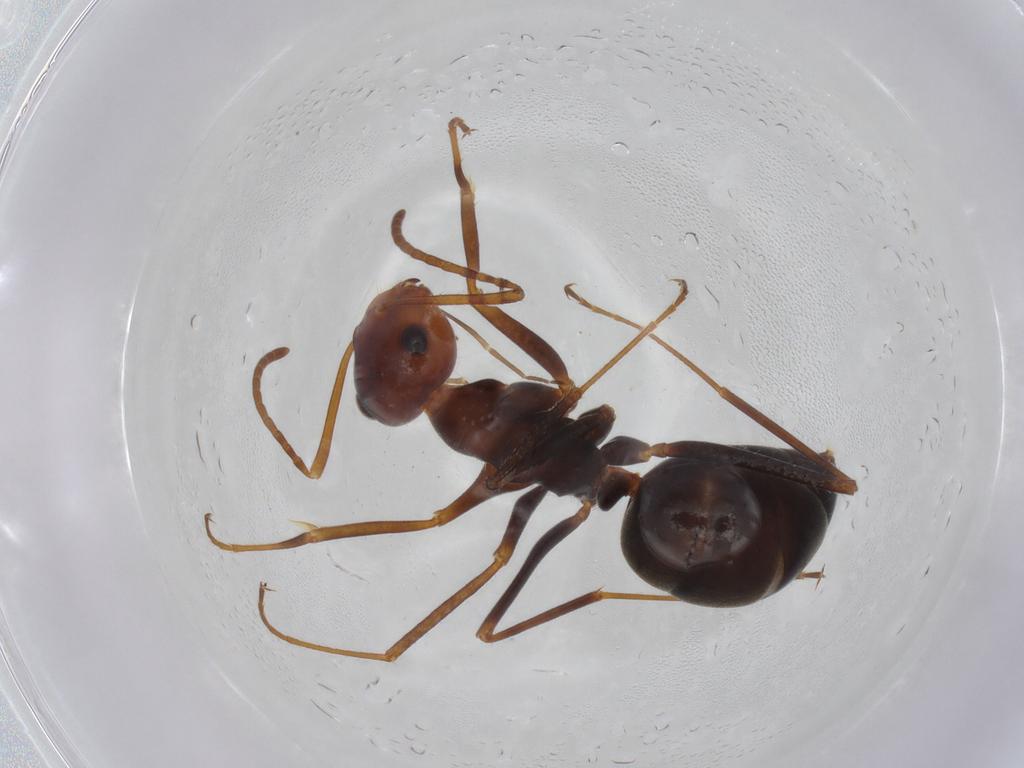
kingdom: Animalia
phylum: Arthropoda
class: Insecta
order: Hymenoptera
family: Formicidae
